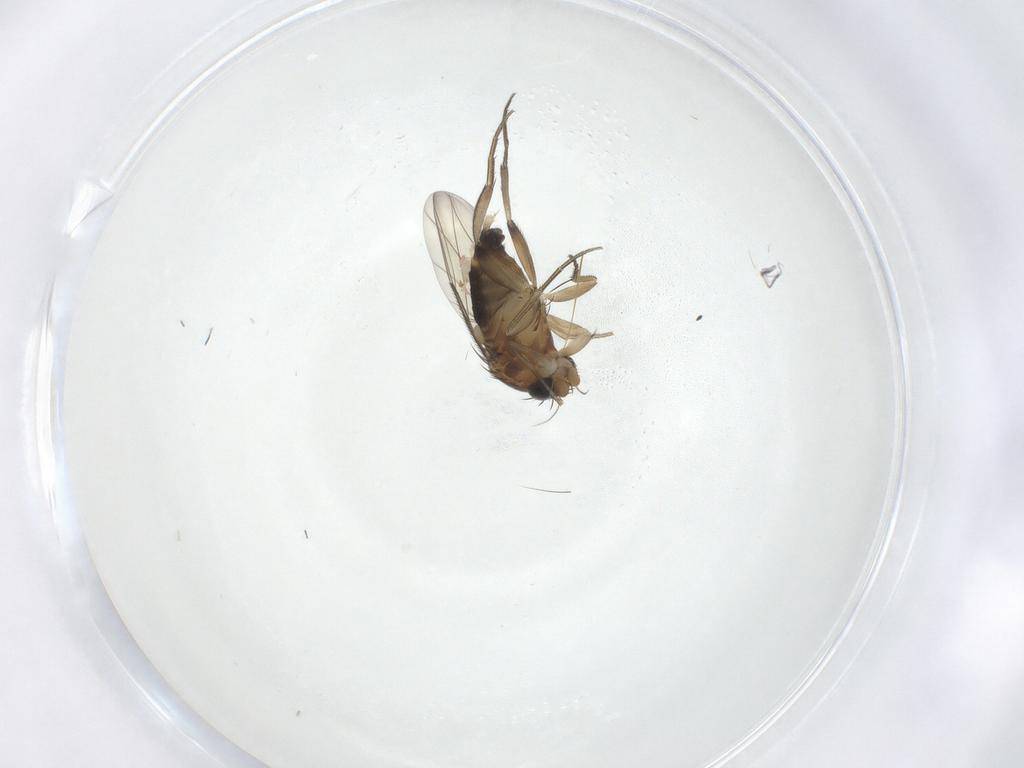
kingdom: Animalia
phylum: Arthropoda
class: Insecta
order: Diptera
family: Phoridae
